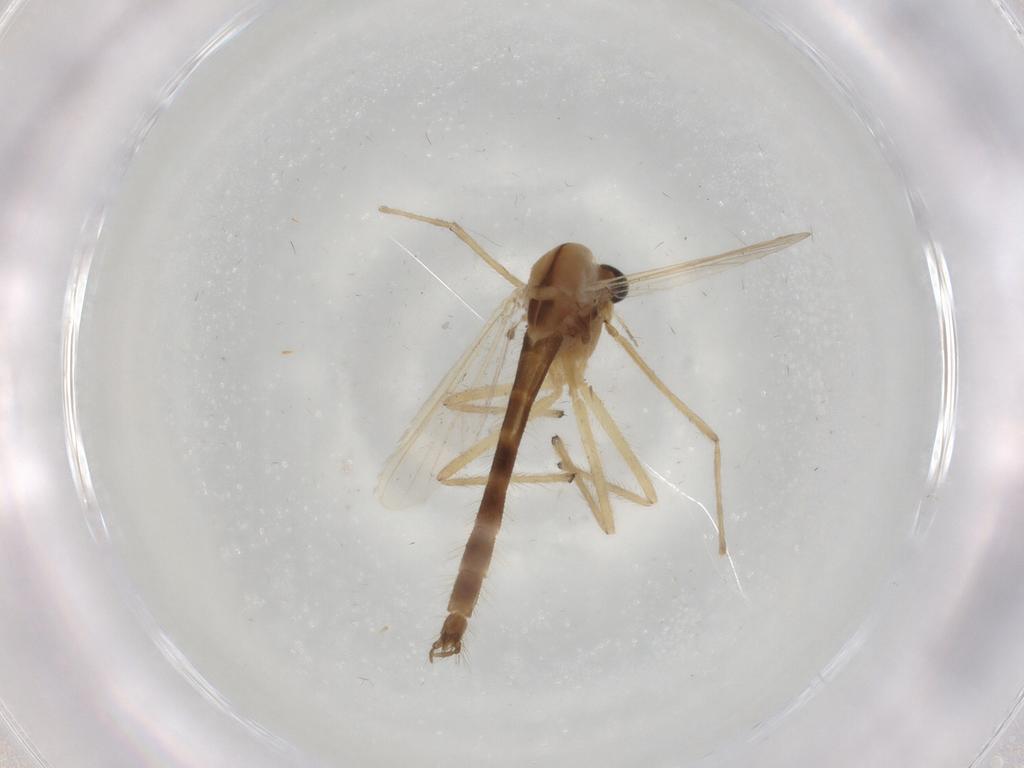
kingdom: Animalia
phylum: Arthropoda
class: Insecta
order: Diptera
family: Chironomidae
